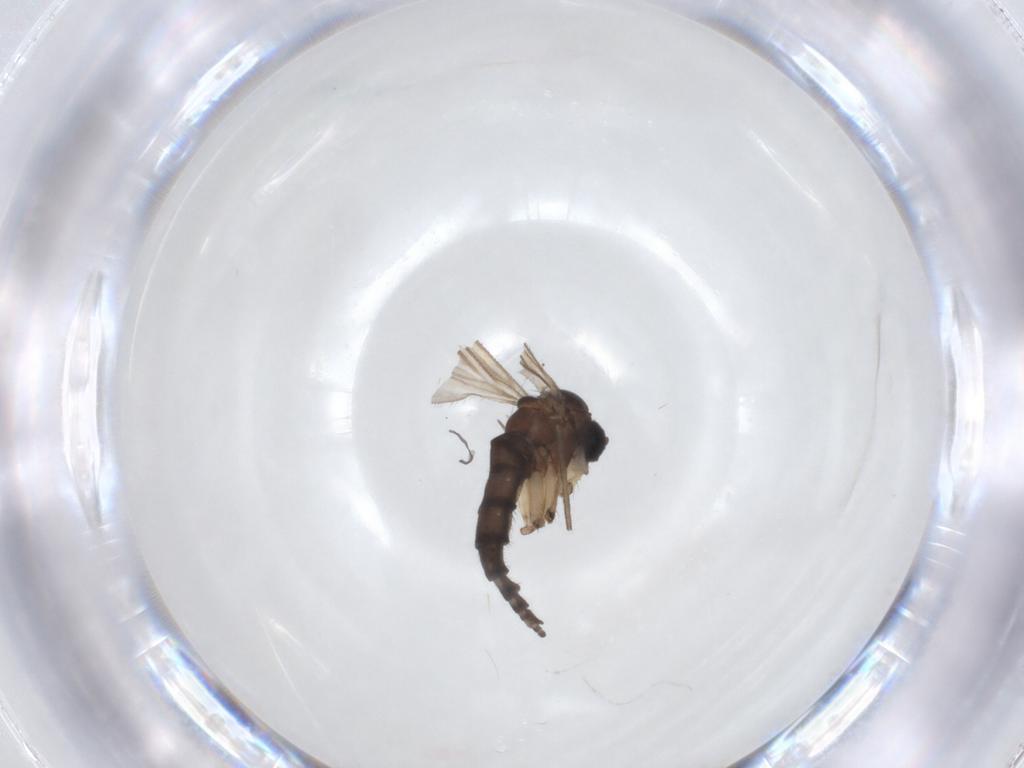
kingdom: Animalia
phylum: Arthropoda
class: Insecta
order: Diptera
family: Sciaridae
